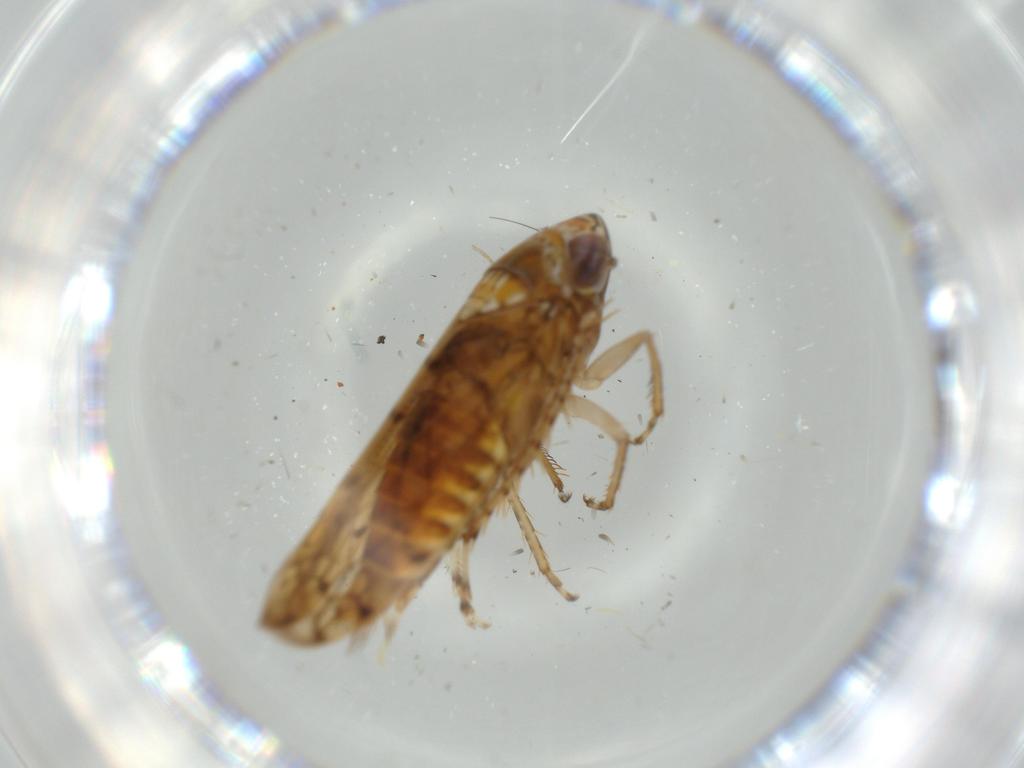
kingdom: Animalia
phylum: Arthropoda
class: Insecta
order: Hemiptera
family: Cicadellidae
